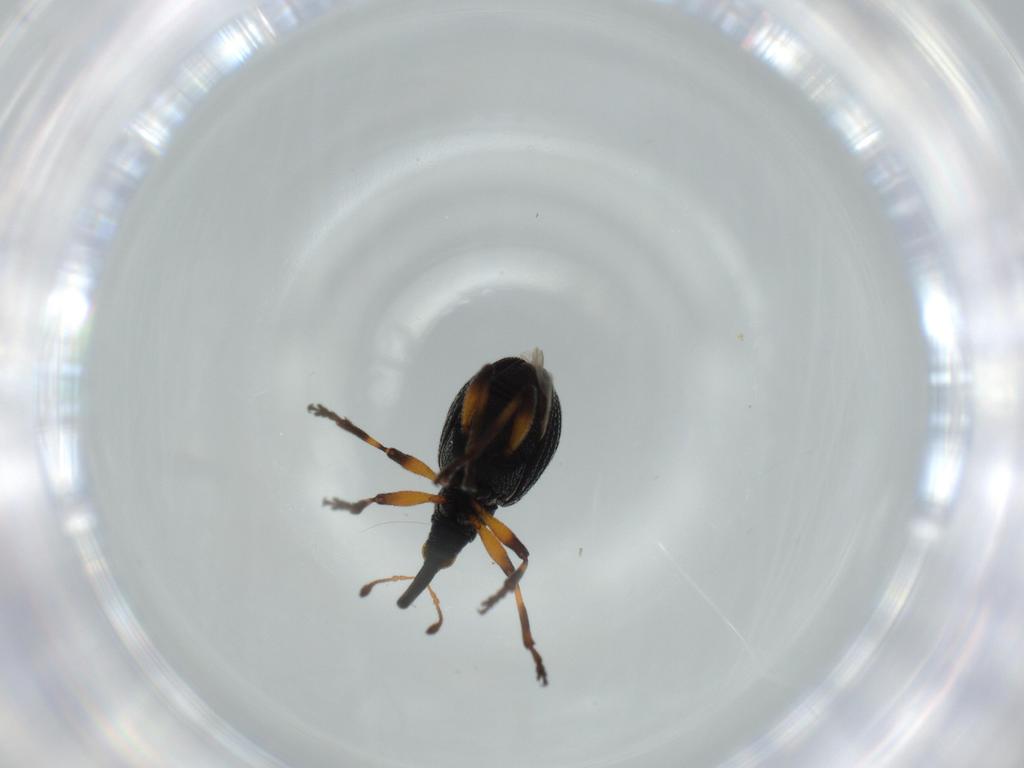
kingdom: Animalia
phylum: Arthropoda
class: Insecta
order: Coleoptera
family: Brentidae
